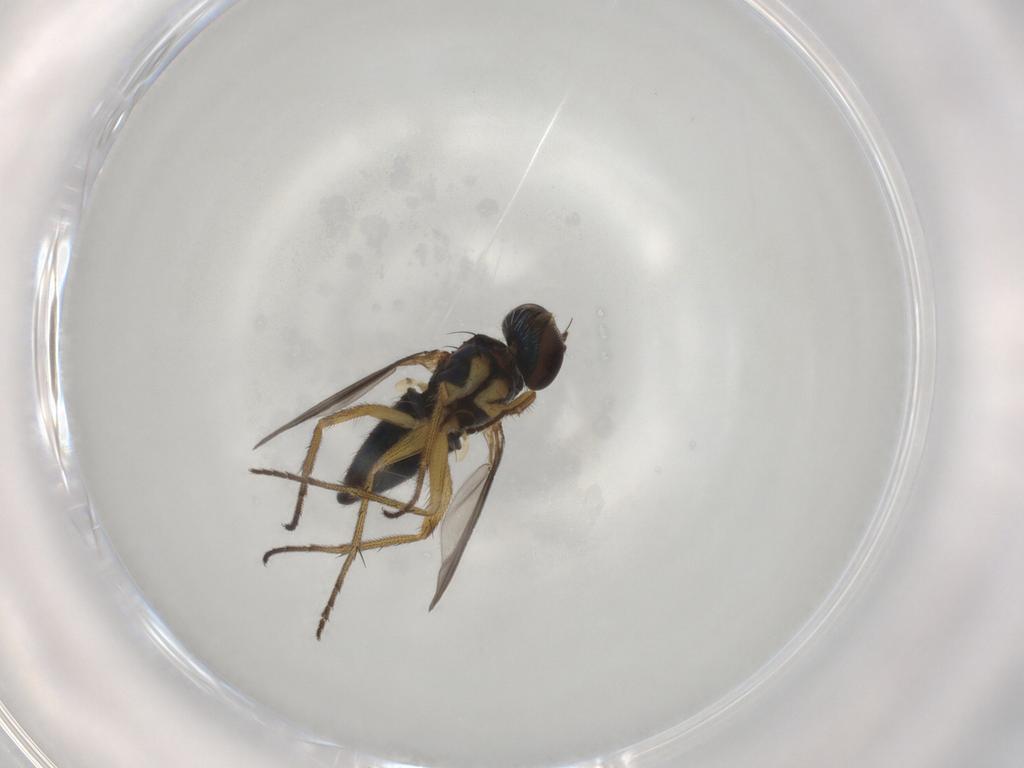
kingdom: Animalia
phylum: Arthropoda
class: Insecta
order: Diptera
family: Dolichopodidae
